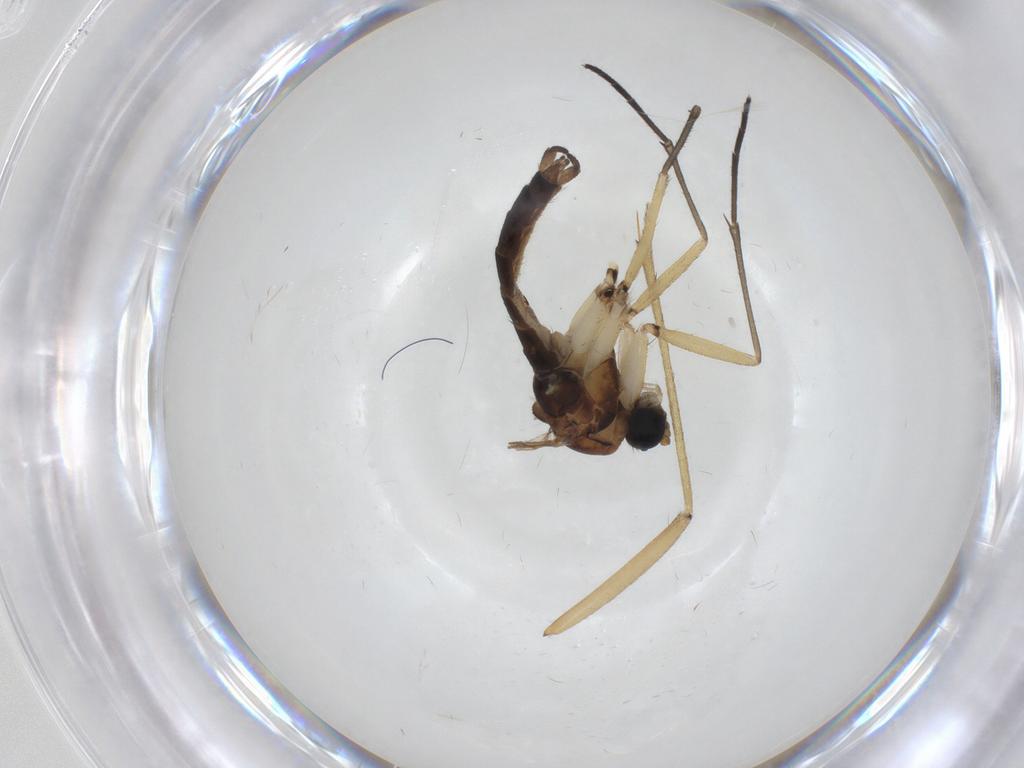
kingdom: Animalia
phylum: Arthropoda
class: Insecta
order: Diptera
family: Sciaridae
